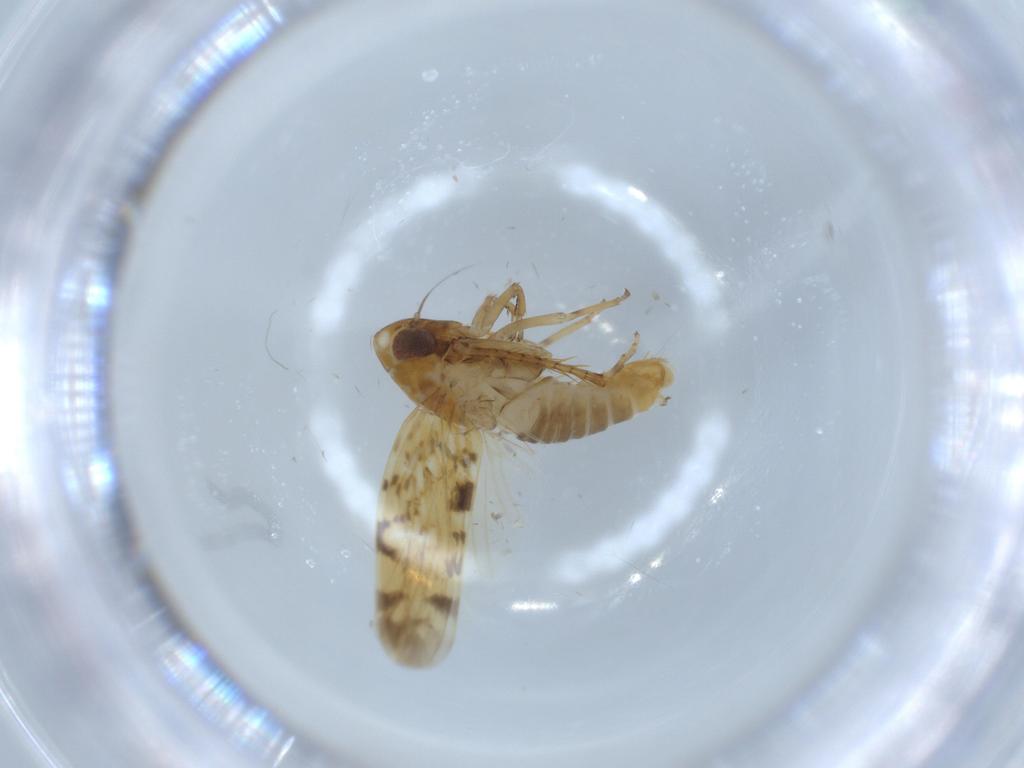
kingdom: Animalia
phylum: Arthropoda
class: Insecta
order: Hemiptera
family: Cicadellidae
